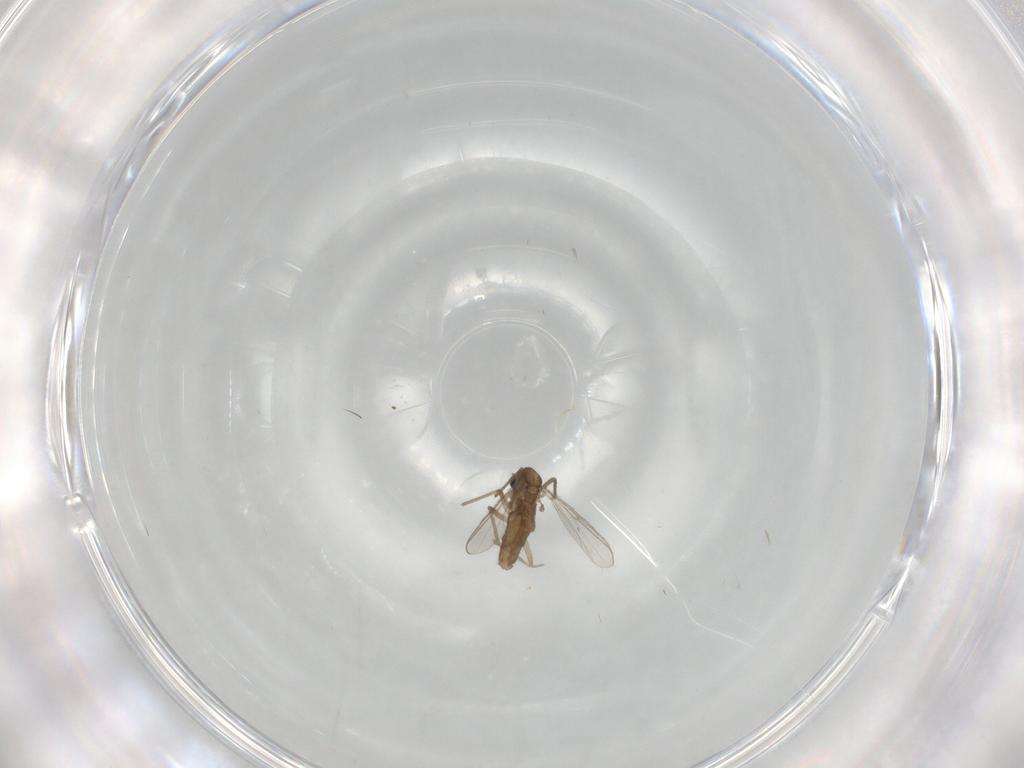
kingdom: Animalia
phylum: Arthropoda
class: Insecta
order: Diptera
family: Chironomidae
